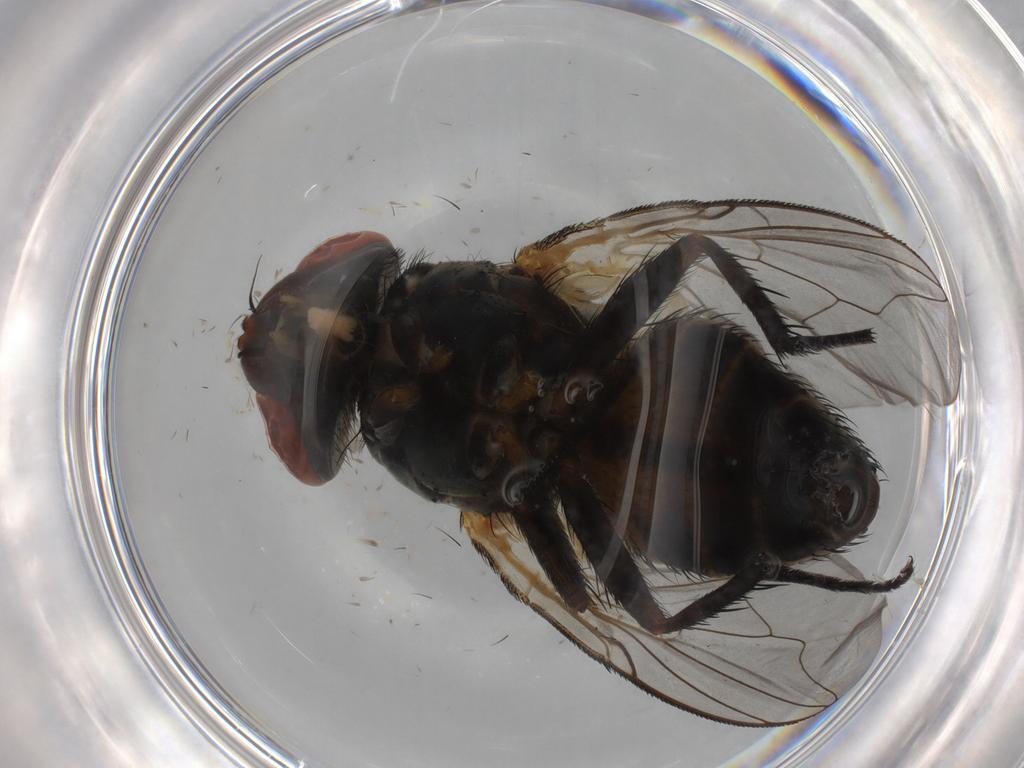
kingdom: Animalia
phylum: Arthropoda
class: Insecta
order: Diptera
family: Sarcophagidae
